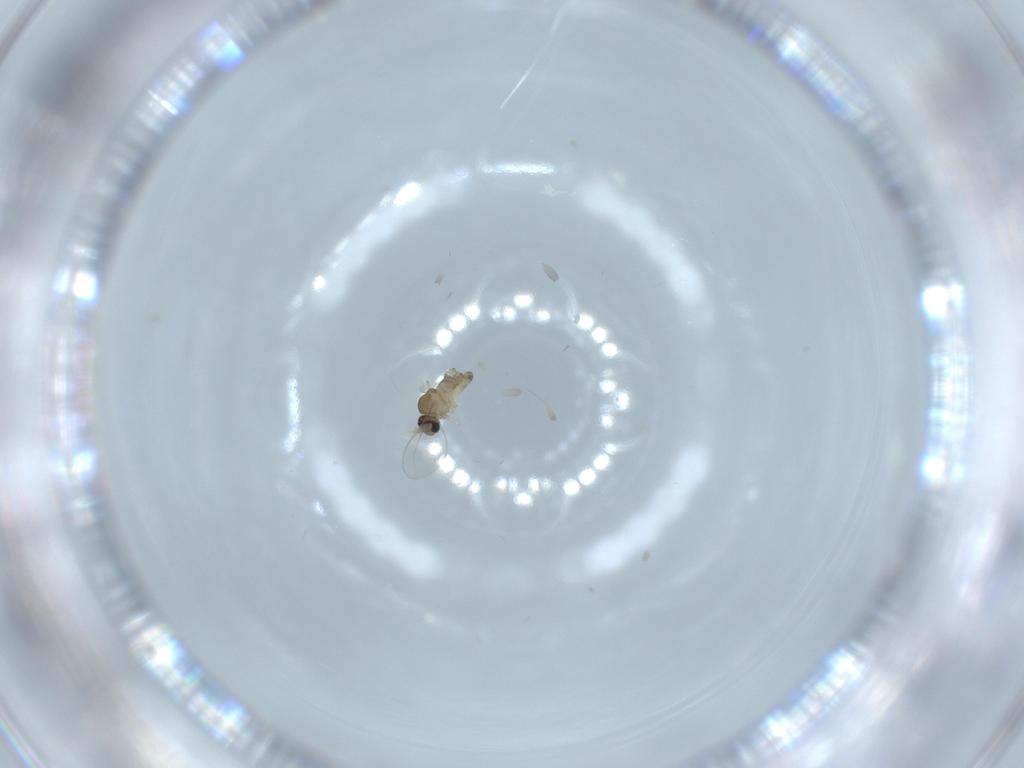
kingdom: Animalia
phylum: Arthropoda
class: Insecta
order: Diptera
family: Cecidomyiidae
